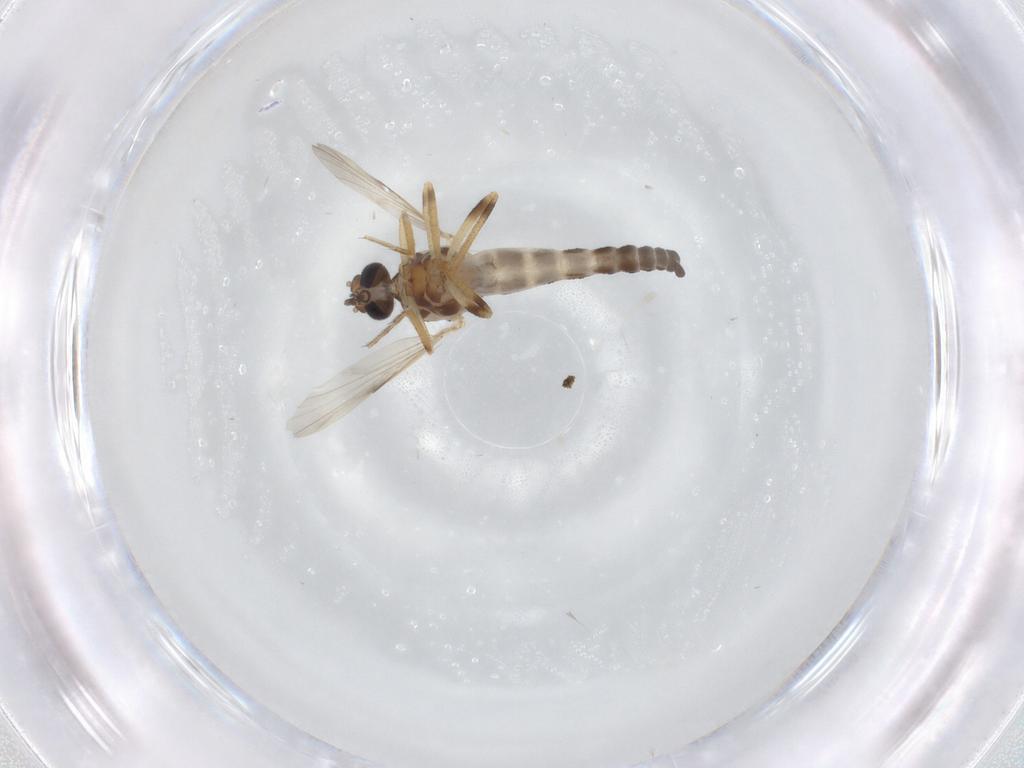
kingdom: Animalia
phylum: Arthropoda
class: Insecta
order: Diptera
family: Ceratopogonidae
